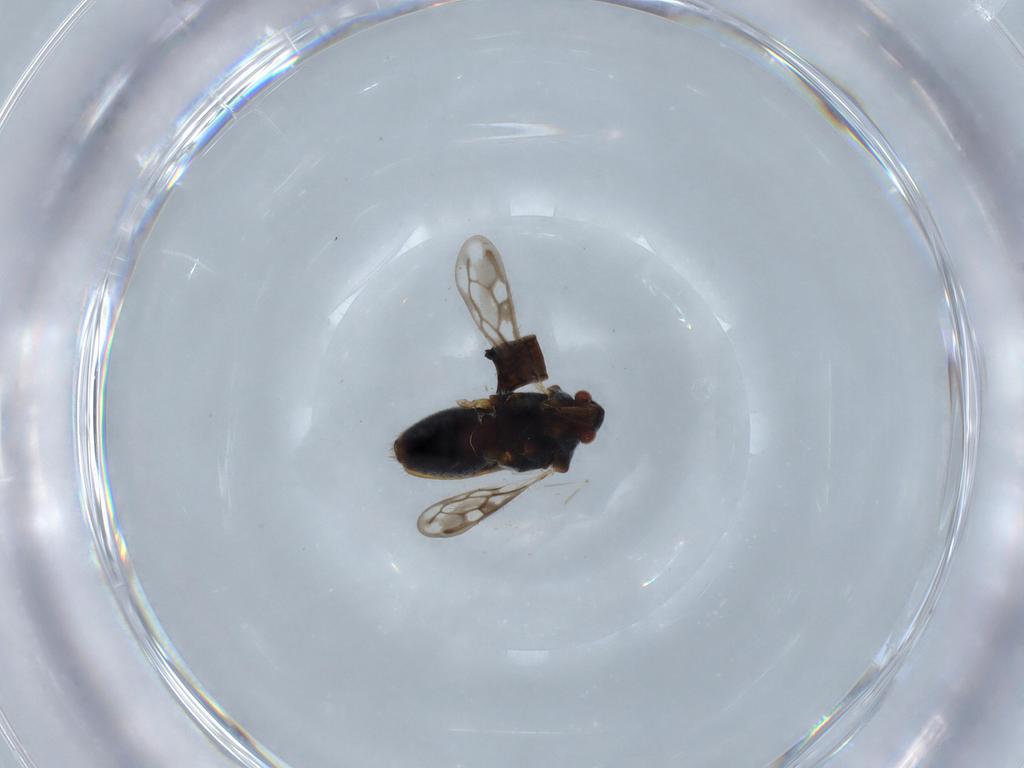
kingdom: Animalia
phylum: Arthropoda
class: Insecta
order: Hemiptera
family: Veliidae
